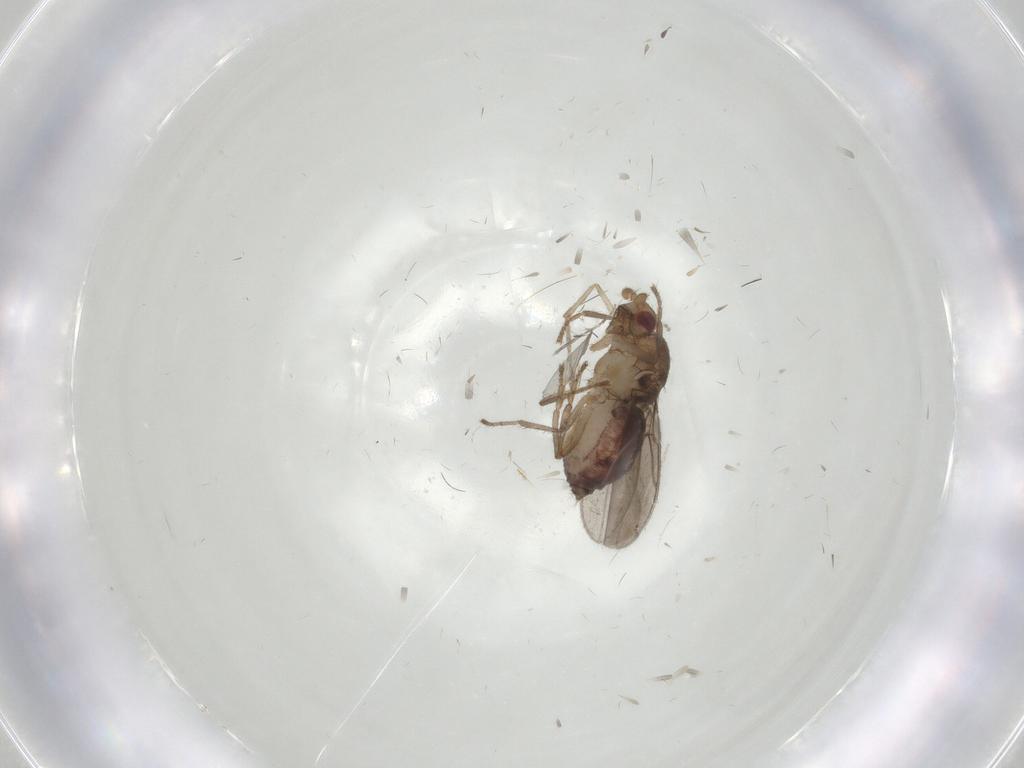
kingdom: Animalia
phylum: Arthropoda
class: Insecta
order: Diptera
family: Sphaeroceridae
